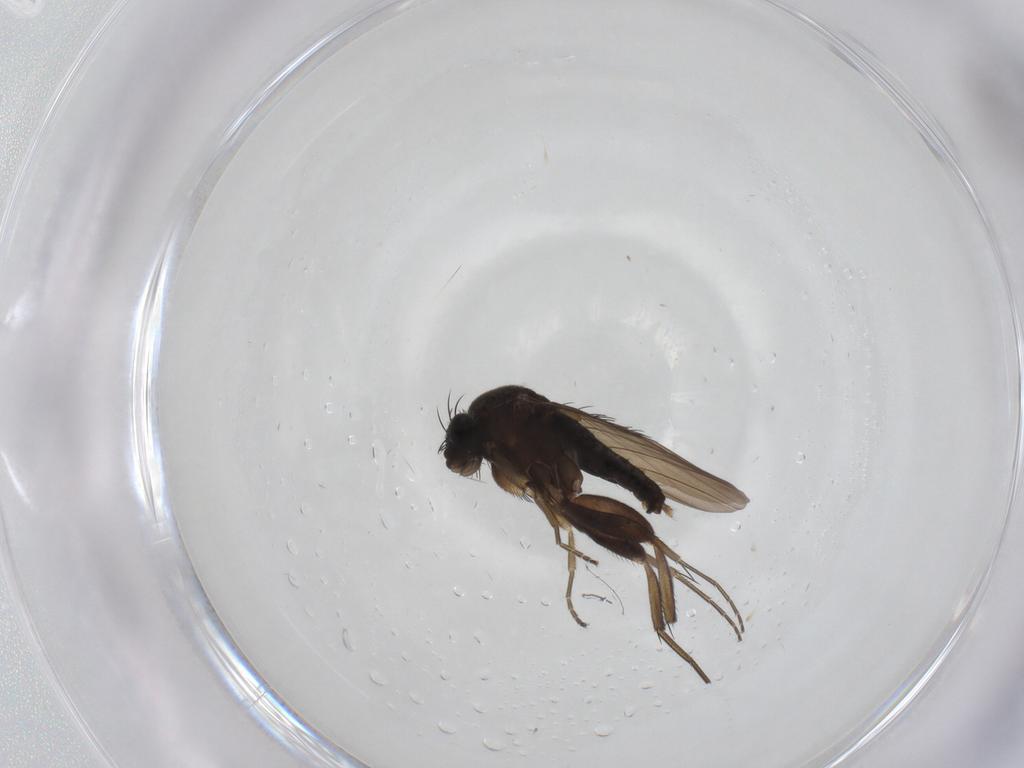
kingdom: Animalia
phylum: Arthropoda
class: Insecta
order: Diptera
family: Phoridae
